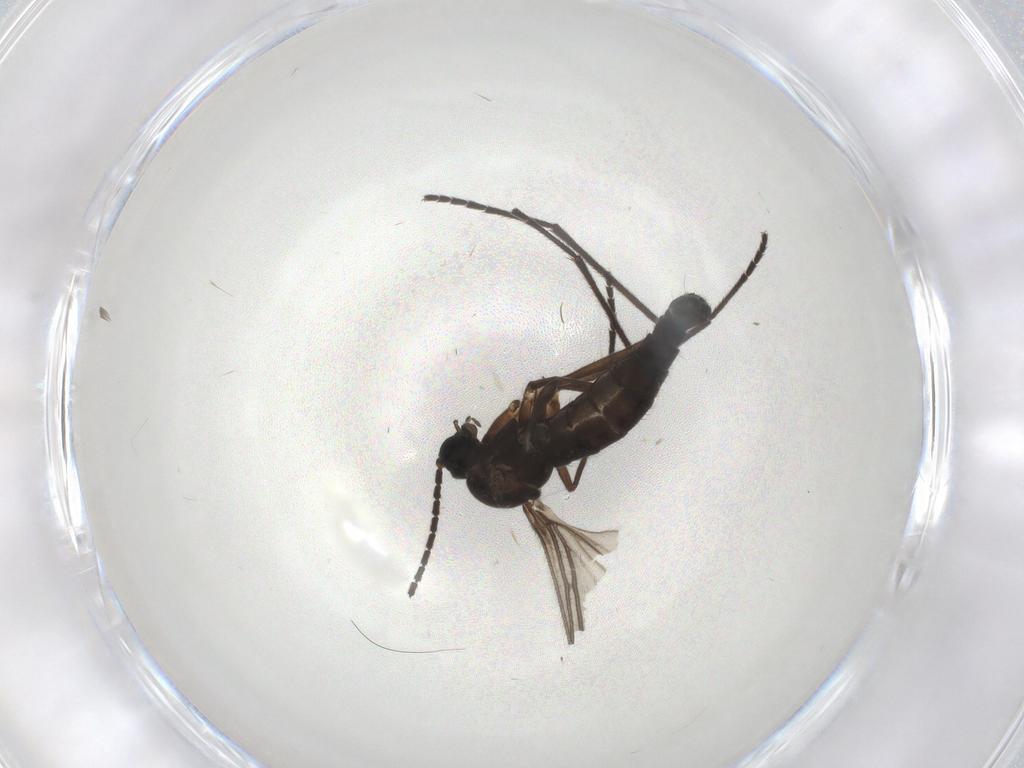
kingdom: Animalia
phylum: Arthropoda
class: Insecta
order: Diptera
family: Sciaridae
